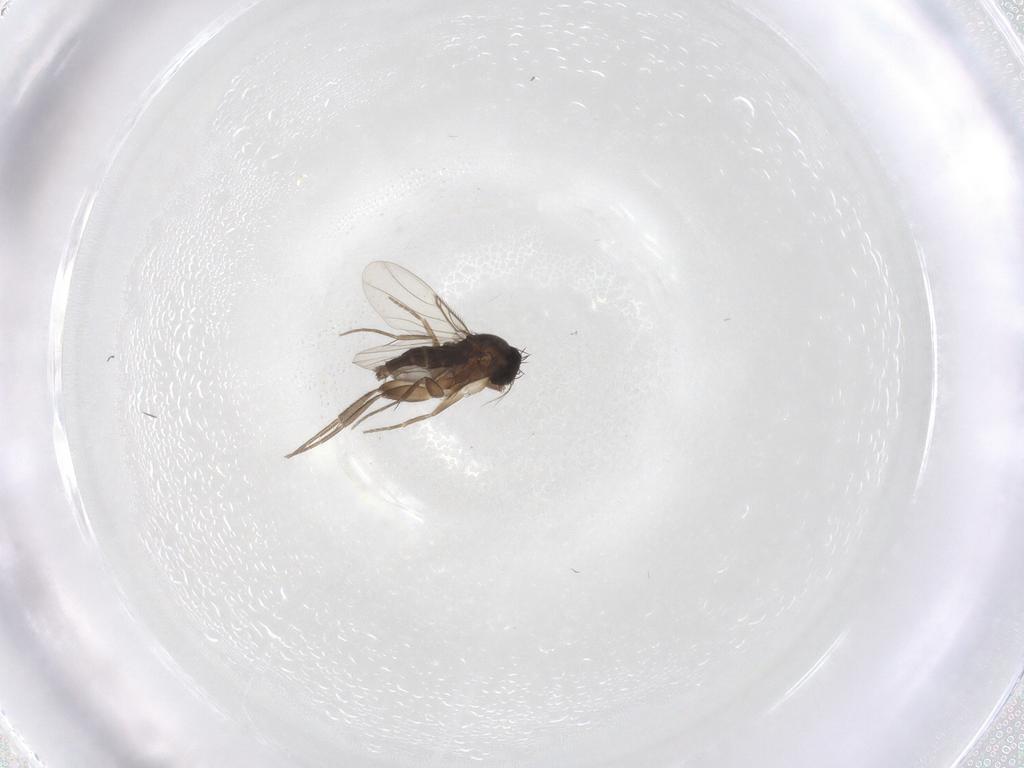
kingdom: Animalia
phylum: Arthropoda
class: Insecta
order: Diptera
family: Phoridae
